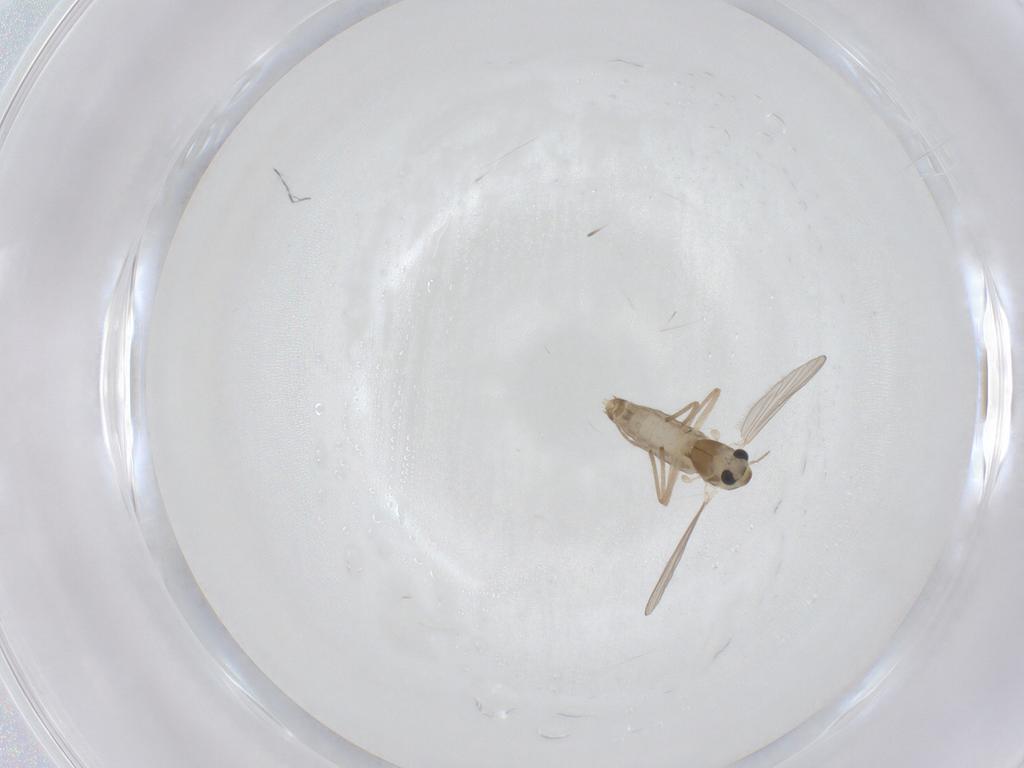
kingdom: Animalia
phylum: Arthropoda
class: Insecta
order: Diptera
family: Chironomidae
